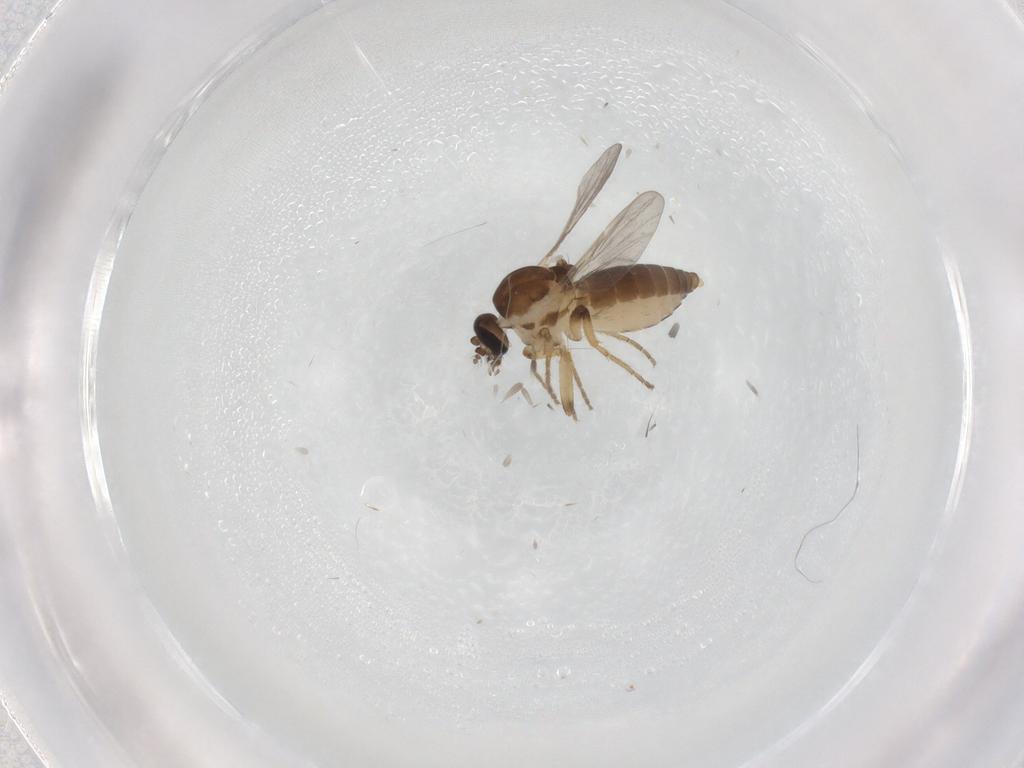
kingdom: Animalia
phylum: Arthropoda
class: Insecta
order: Diptera
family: Ceratopogonidae
